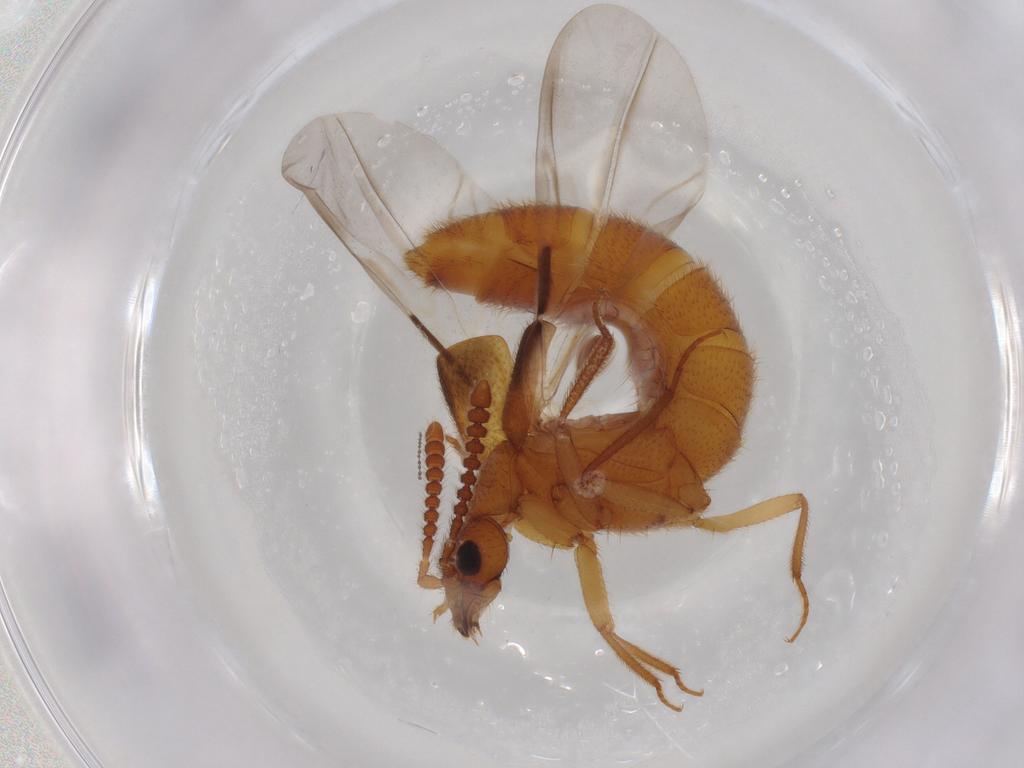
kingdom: Animalia
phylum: Arthropoda
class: Insecta
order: Coleoptera
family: Staphylinidae
